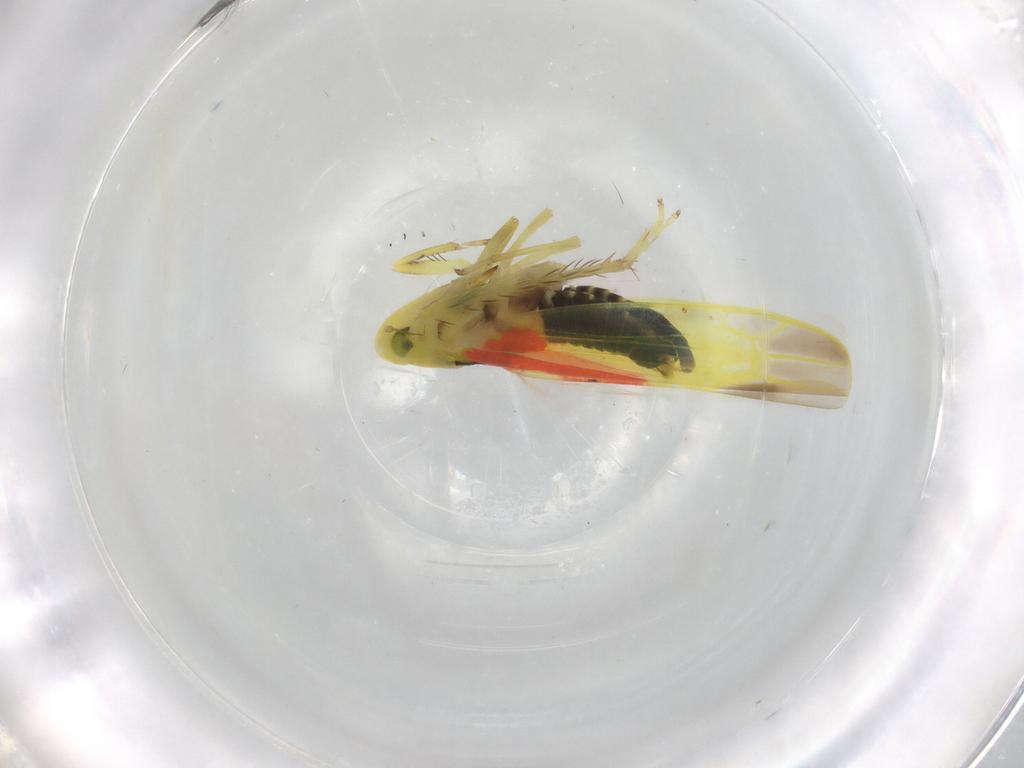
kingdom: Animalia
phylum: Arthropoda
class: Insecta
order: Hemiptera
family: Cicadellidae
